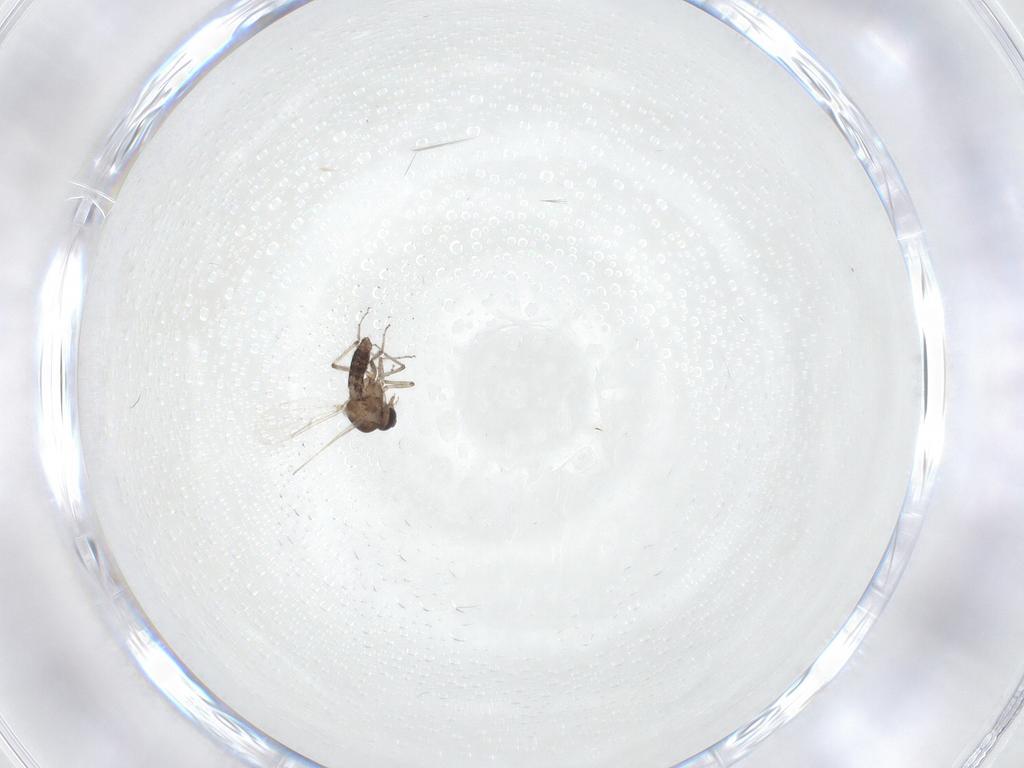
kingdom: Animalia
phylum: Arthropoda
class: Insecta
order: Diptera
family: Ceratopogonidae
